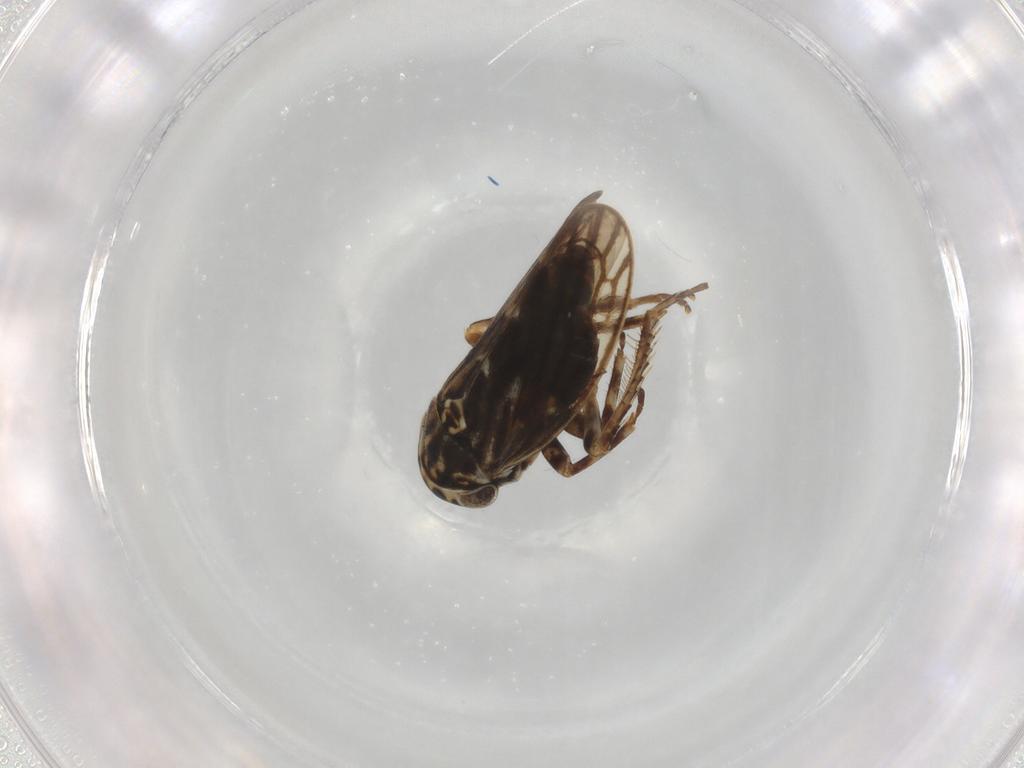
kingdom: Animalia
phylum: Arthropoda
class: Insecta
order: Hemiptera
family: Cicadellidae
